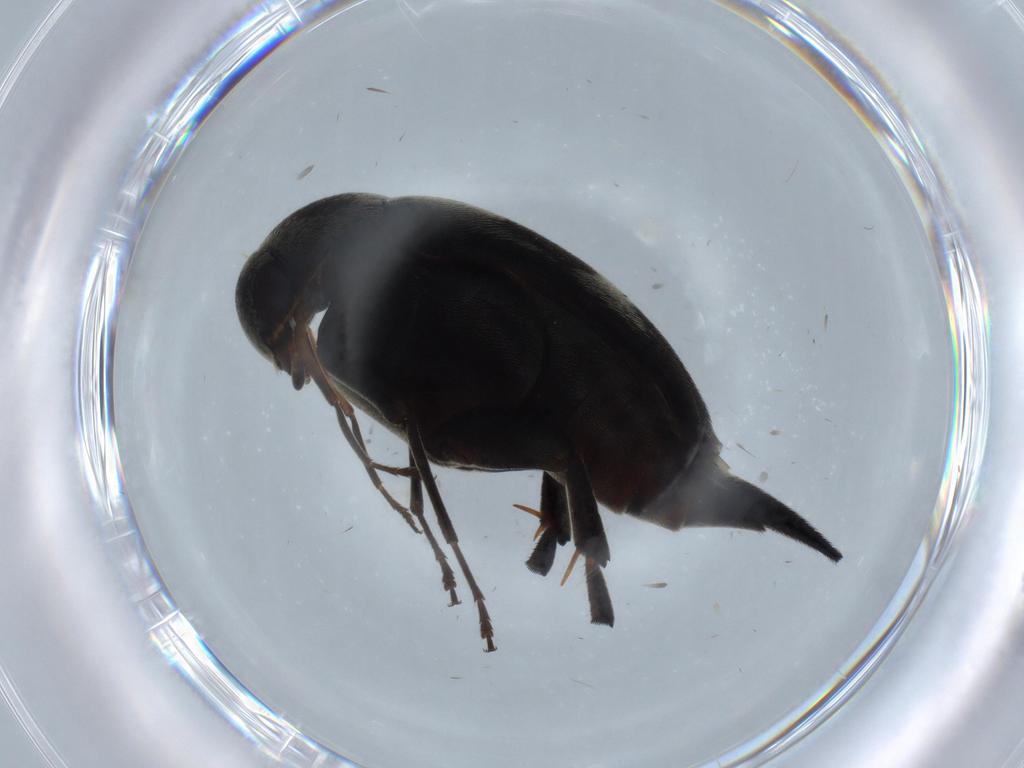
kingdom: Animalia
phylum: Arthropoda
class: Insecta
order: Coleoptera
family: Mordellidae
